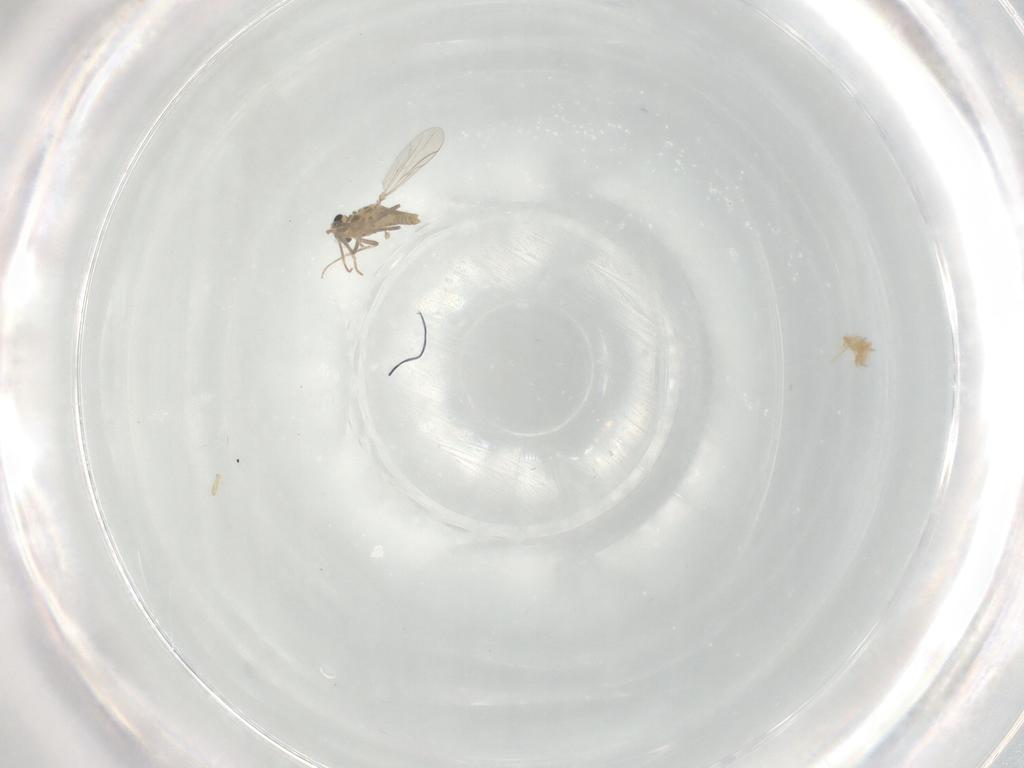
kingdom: Animalia
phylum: Arthropoda
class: Insecta
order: Diptera
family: Chironomidae
